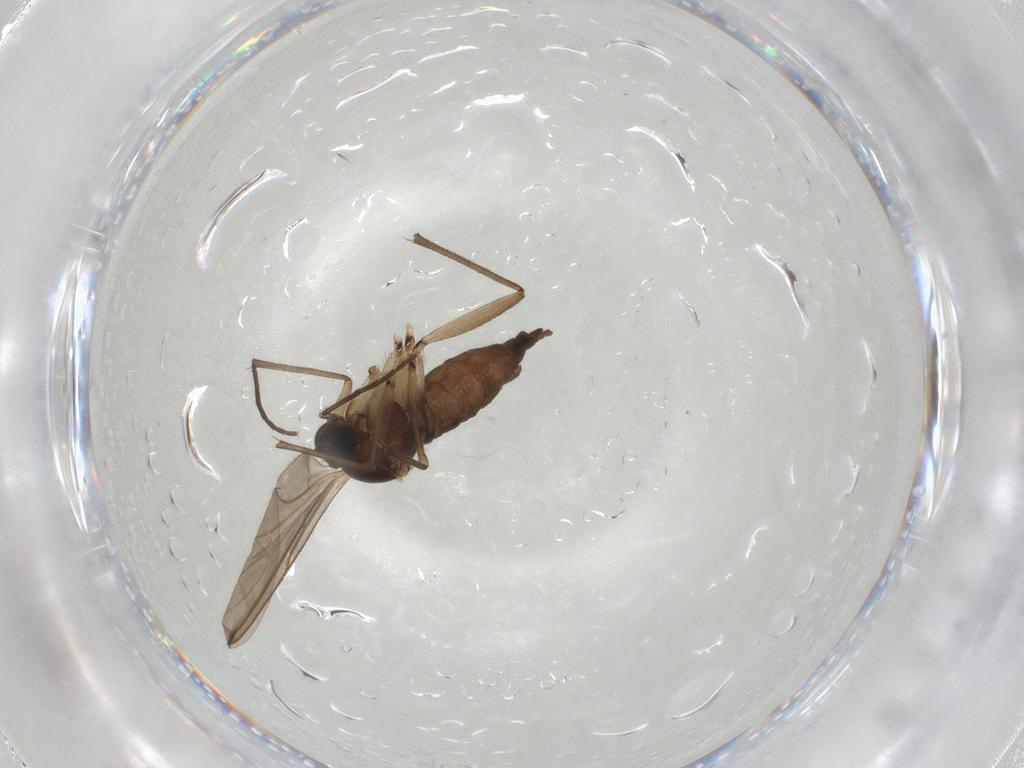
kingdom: Animalia
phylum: Arthropoda
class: Insecta
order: Diptera
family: Sciaridae
